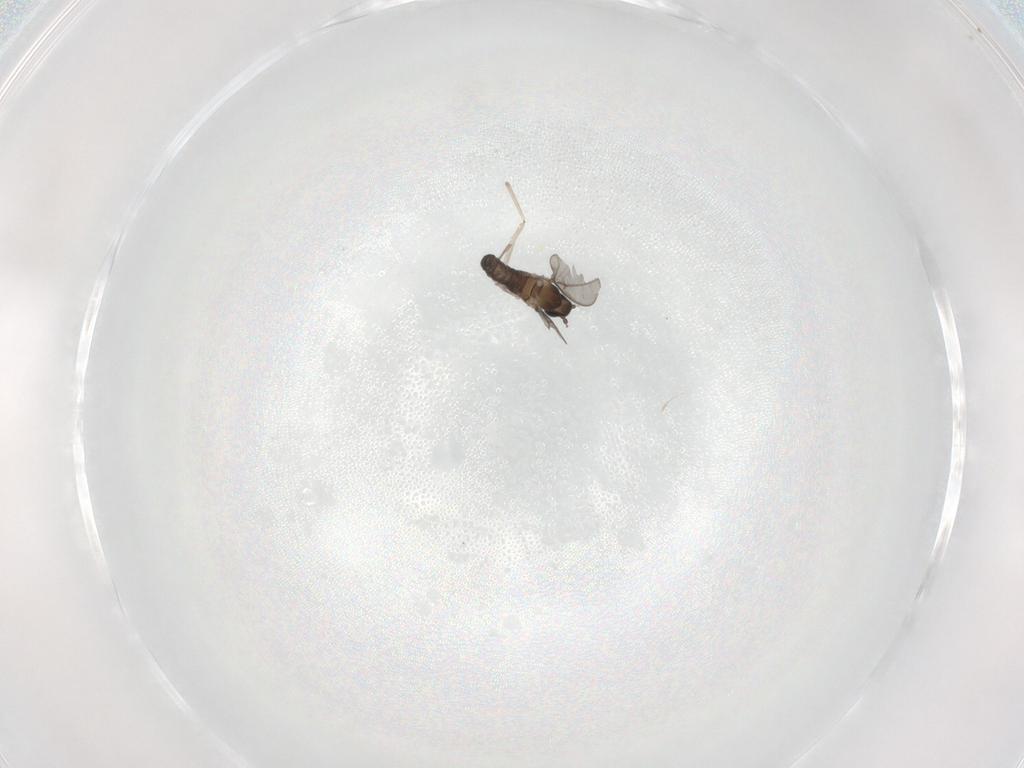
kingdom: Animalia
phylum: Arthropoda
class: Insecta
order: Diptera
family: Cecidomyiidae
